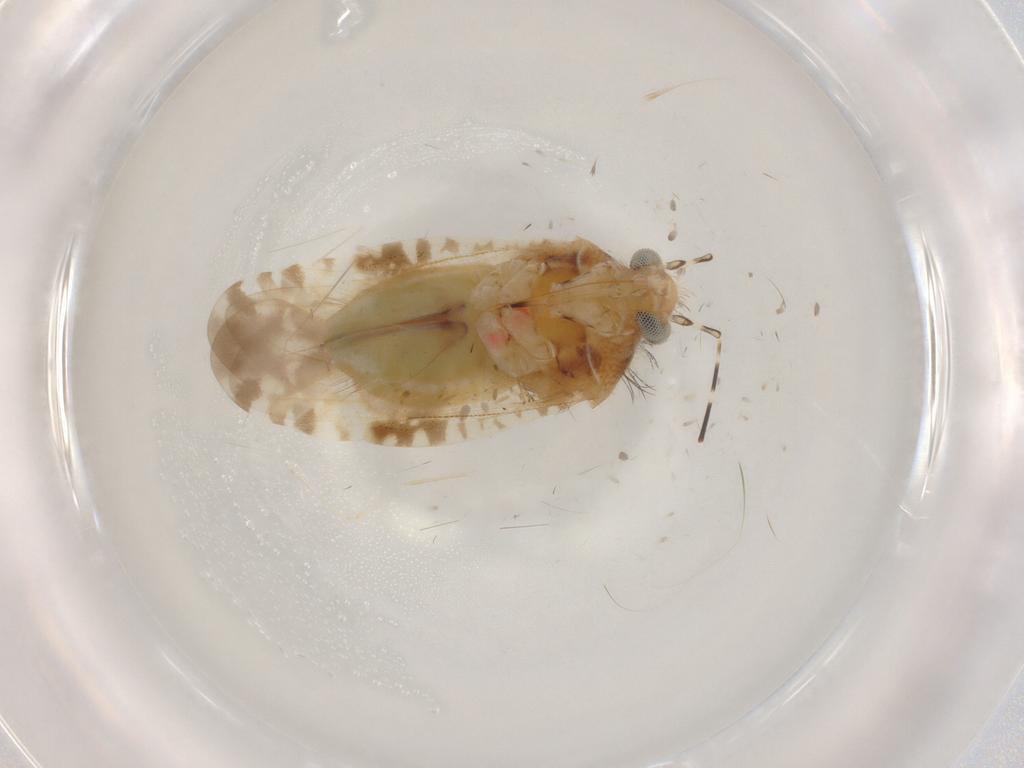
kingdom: Animalia
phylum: Arthropoda
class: Insecta
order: Hemiptera
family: Miridae
